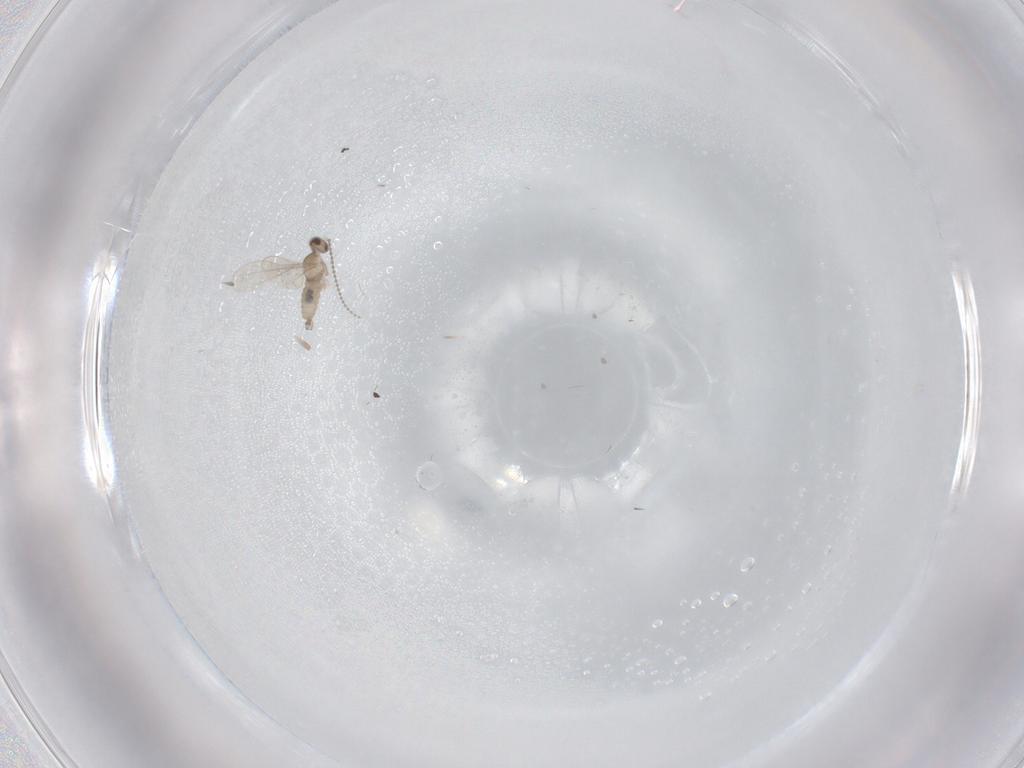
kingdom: Animalia
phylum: Arthropoda
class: Insecta
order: Diptera
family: Cecidomyiidae
